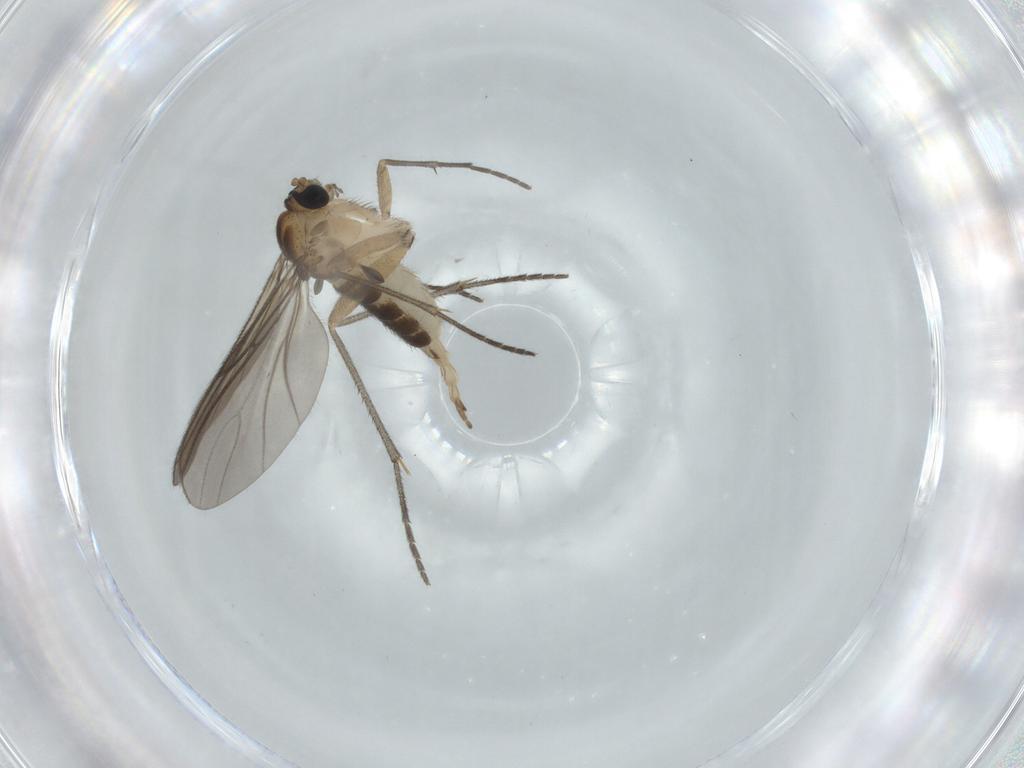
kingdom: Animalia
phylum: Arthropoda
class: Insecta
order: Diptera
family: Sciaridae
